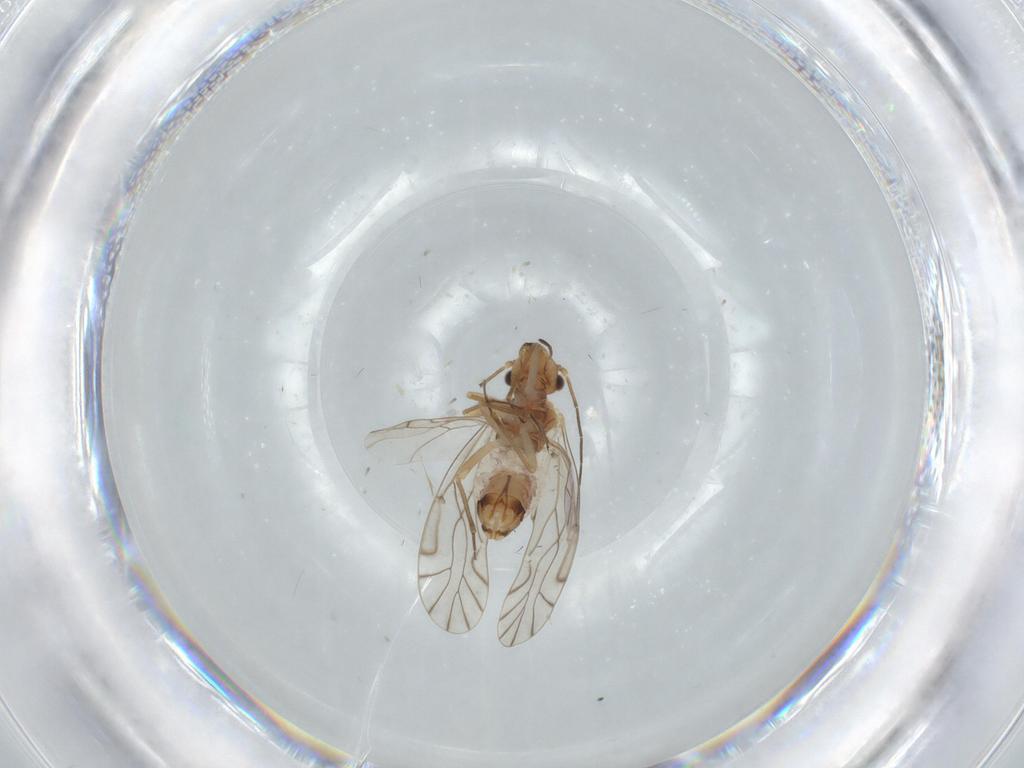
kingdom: Animalia
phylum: Arthropoda
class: Insecta
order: Psocodea
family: Lachesillidae
